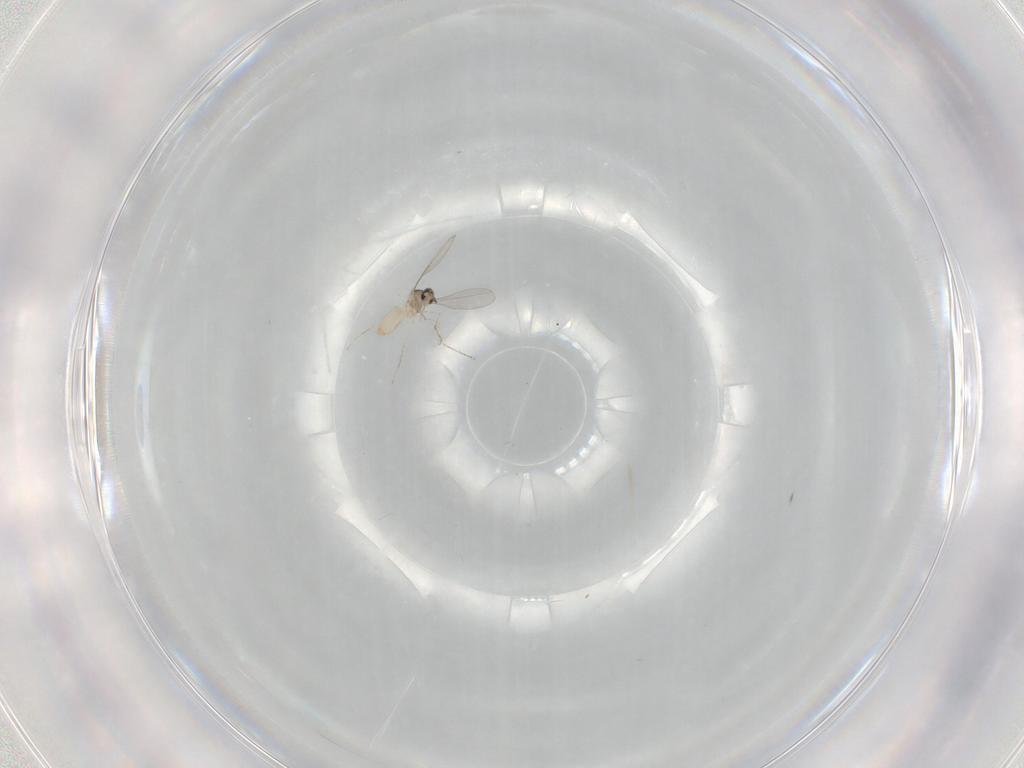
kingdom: Animalia
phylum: Arthropoda
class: Insecta
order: Diptera
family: Cecidomyiidae
